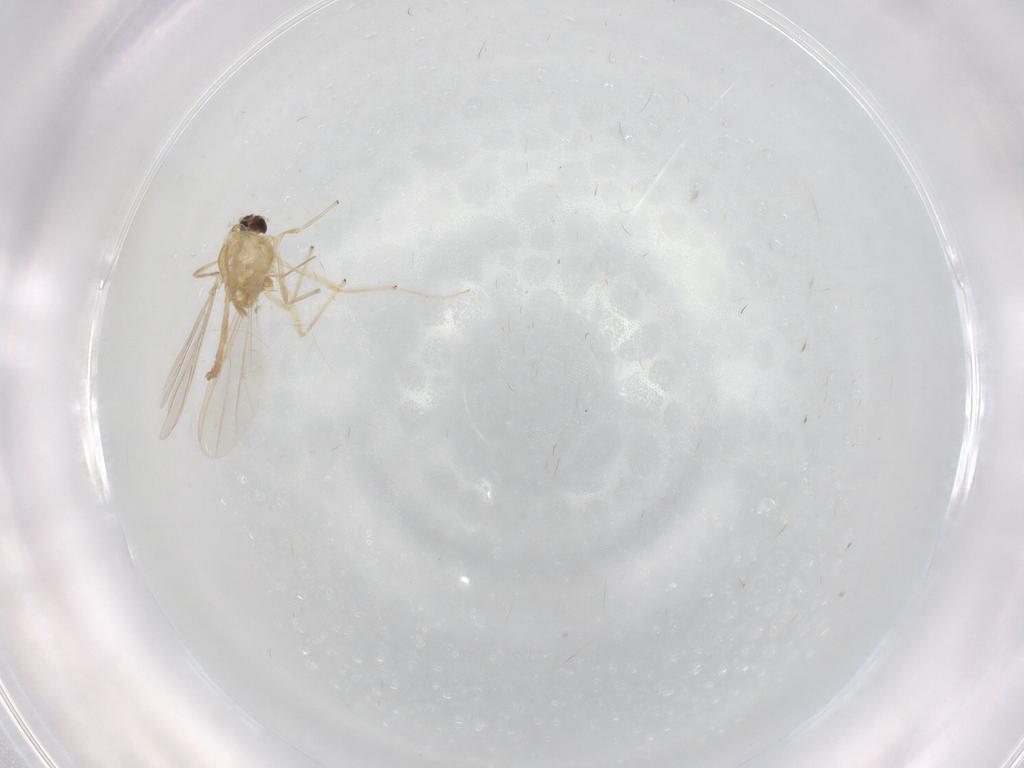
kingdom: Animalia
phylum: Arthropoda
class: Insecta
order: Diptera
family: Chironomidae
